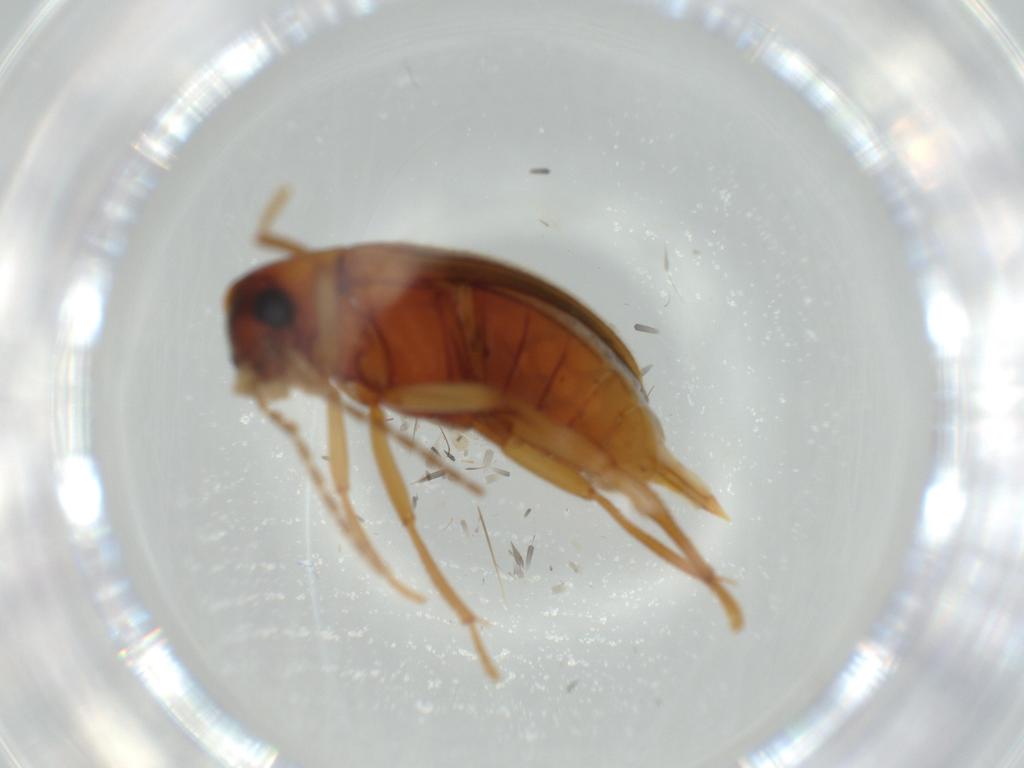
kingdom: Animalia
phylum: Arthropoda
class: Insecta
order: Coleoptera
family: Ptilodactylidae
